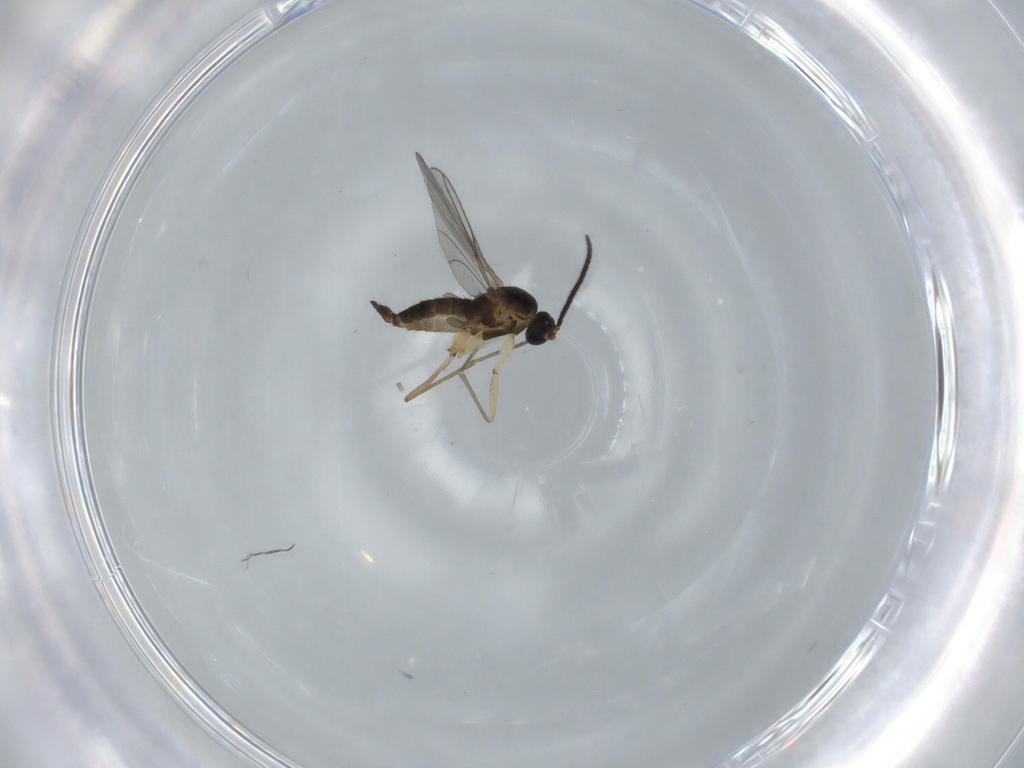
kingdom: Animalia
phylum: Arthropoda
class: Insecta
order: Diptera
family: Sciaridae
